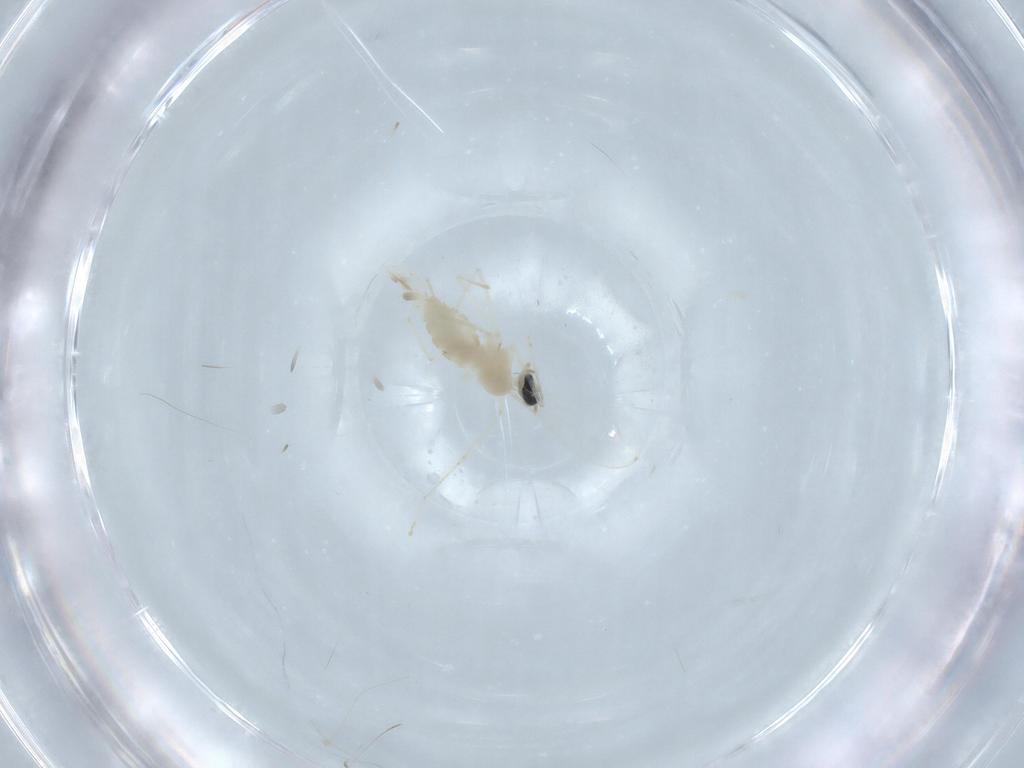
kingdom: Animalia
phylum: Arthropoda
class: Insecta
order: Diptera
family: Cecidomyiidae
